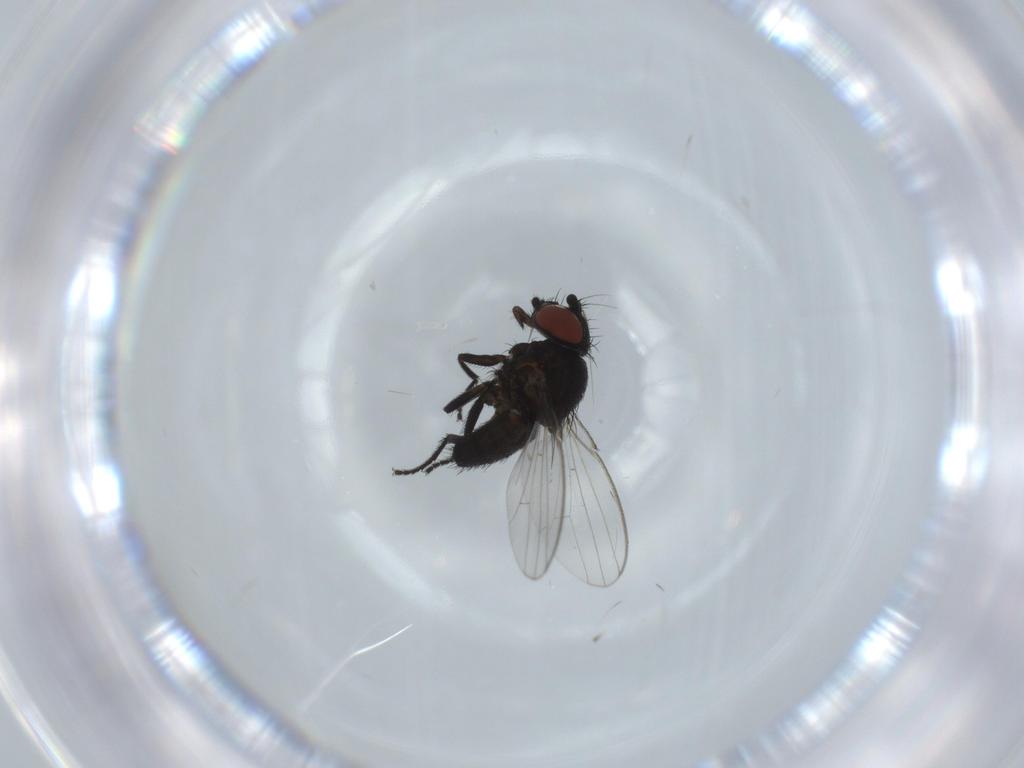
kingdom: Animalia
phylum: Arthropoda
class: Insecta
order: Diptera
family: Milichiidae
